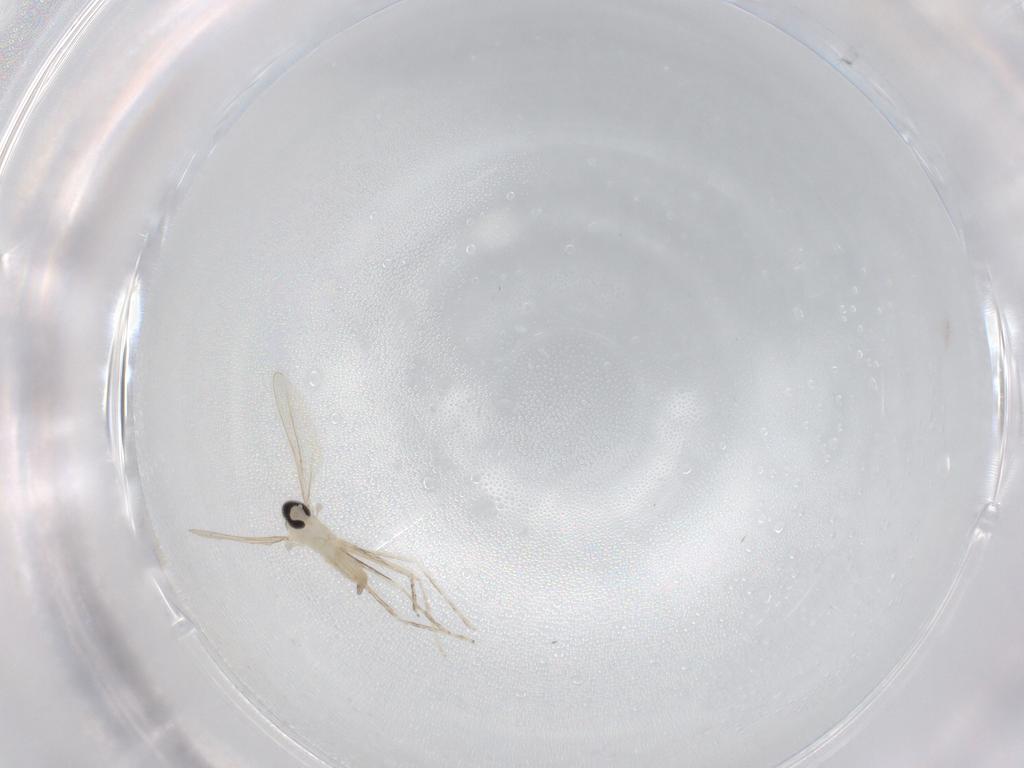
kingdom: Animalia
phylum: Arthropoda
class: Insecta
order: Diptera
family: Cecidomyiidae
